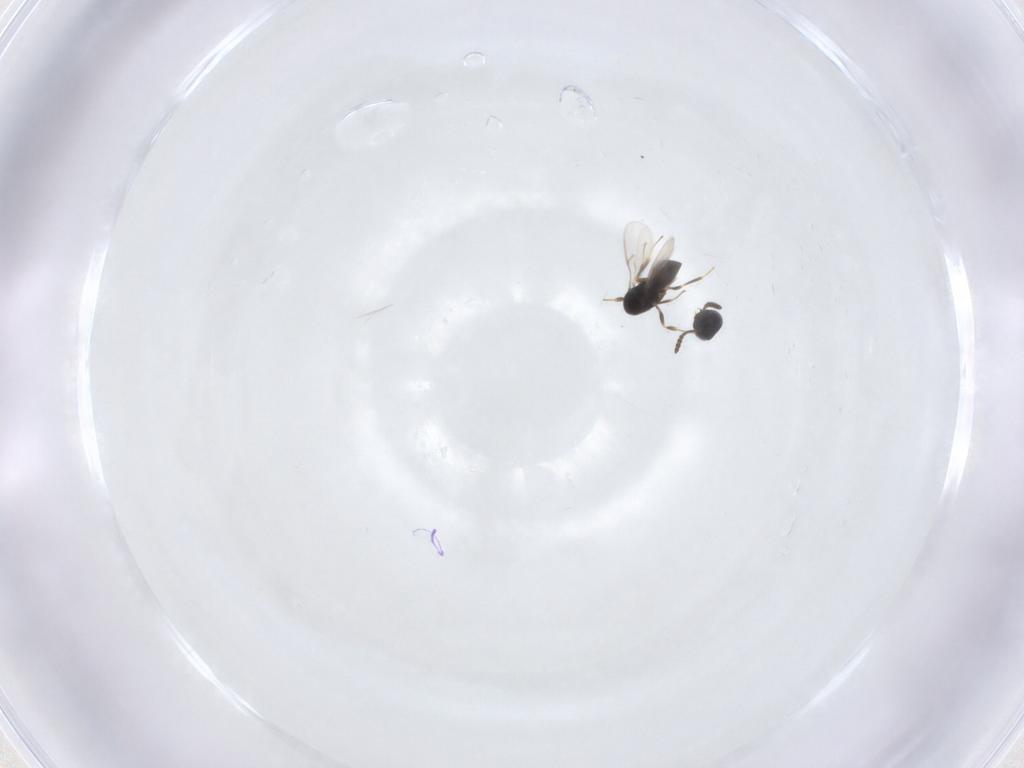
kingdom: Animalia
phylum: Arthropoda
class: Insecta
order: Hymenoptera
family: Scelionidae
